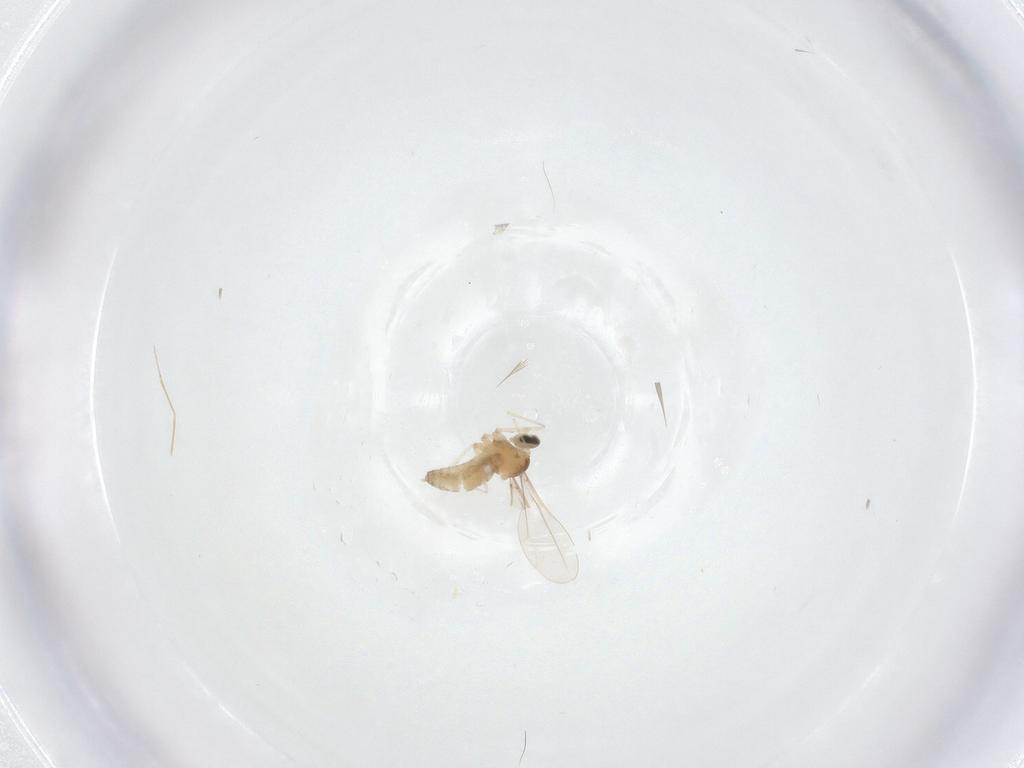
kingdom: Animalia
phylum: Arthropoda
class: Insecta
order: Diptera
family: Cecidomyiidae
